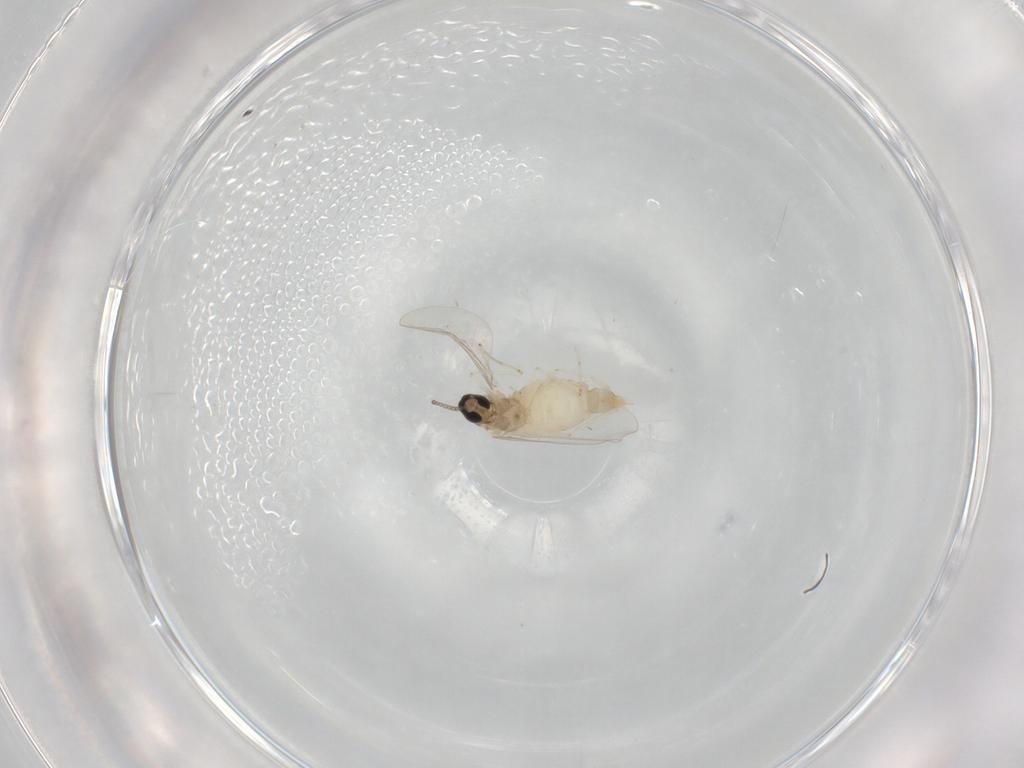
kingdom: Animalia
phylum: Arthropoda
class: Insecta
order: Diptera
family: Cecidomyiidae
